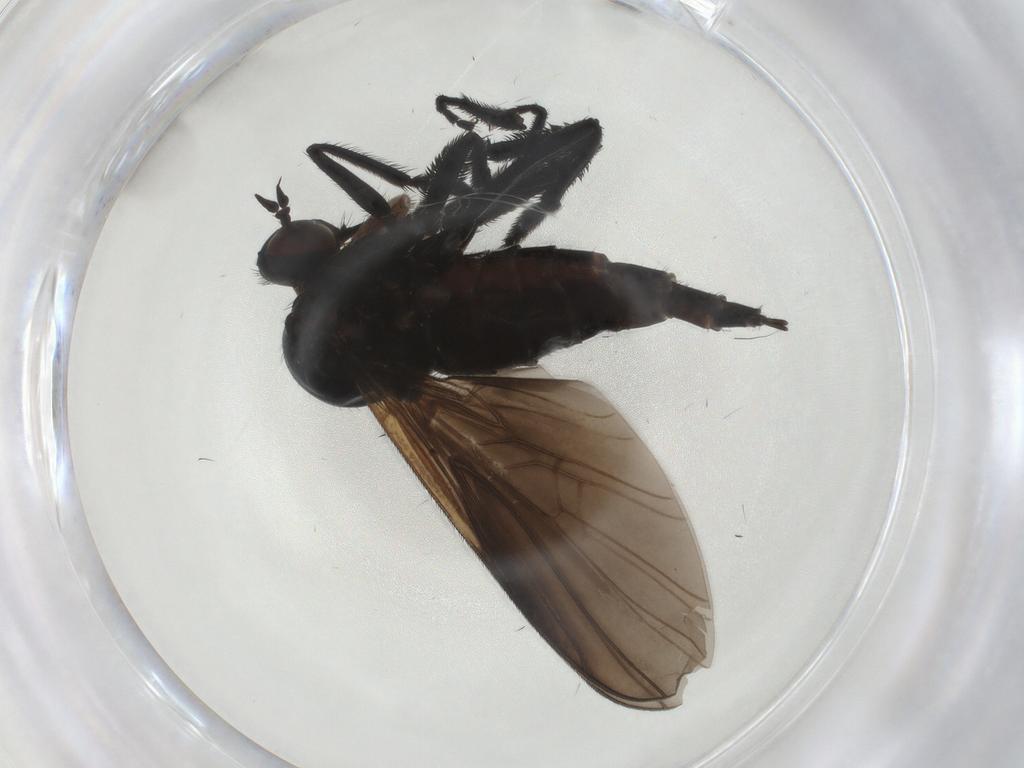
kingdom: Animalia
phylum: Arthropoda
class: Insecta
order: Diptera
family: Empididae
